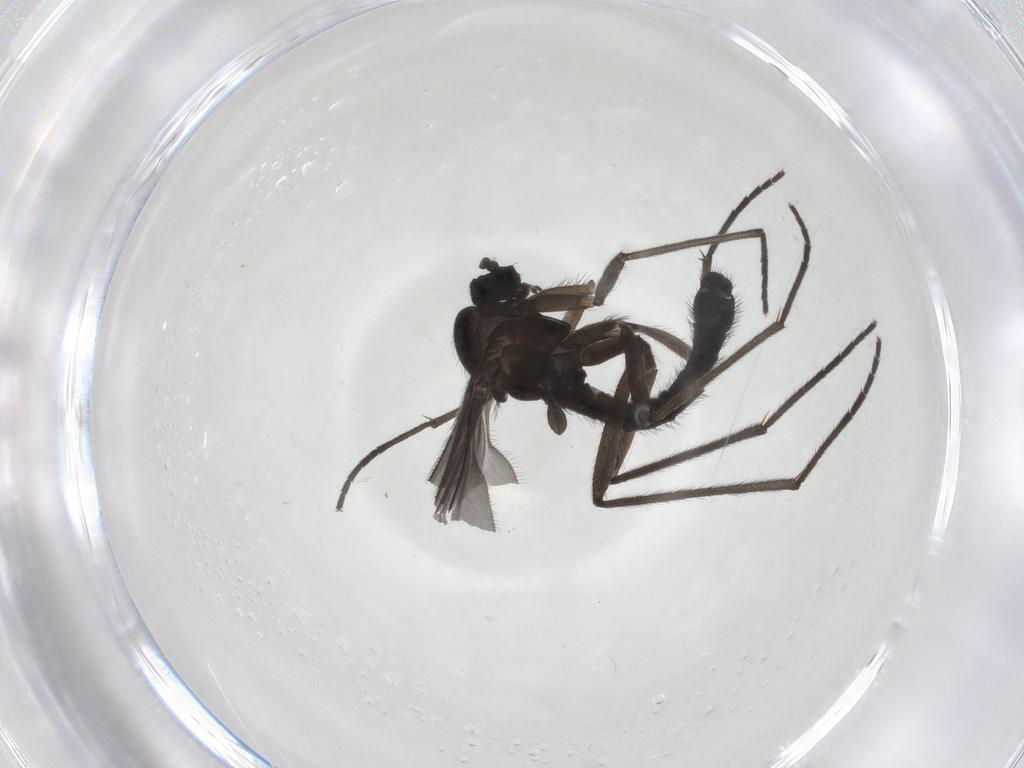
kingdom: Animalia
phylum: Arthropoda
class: Insecta
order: Diptera
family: Sciaridae
